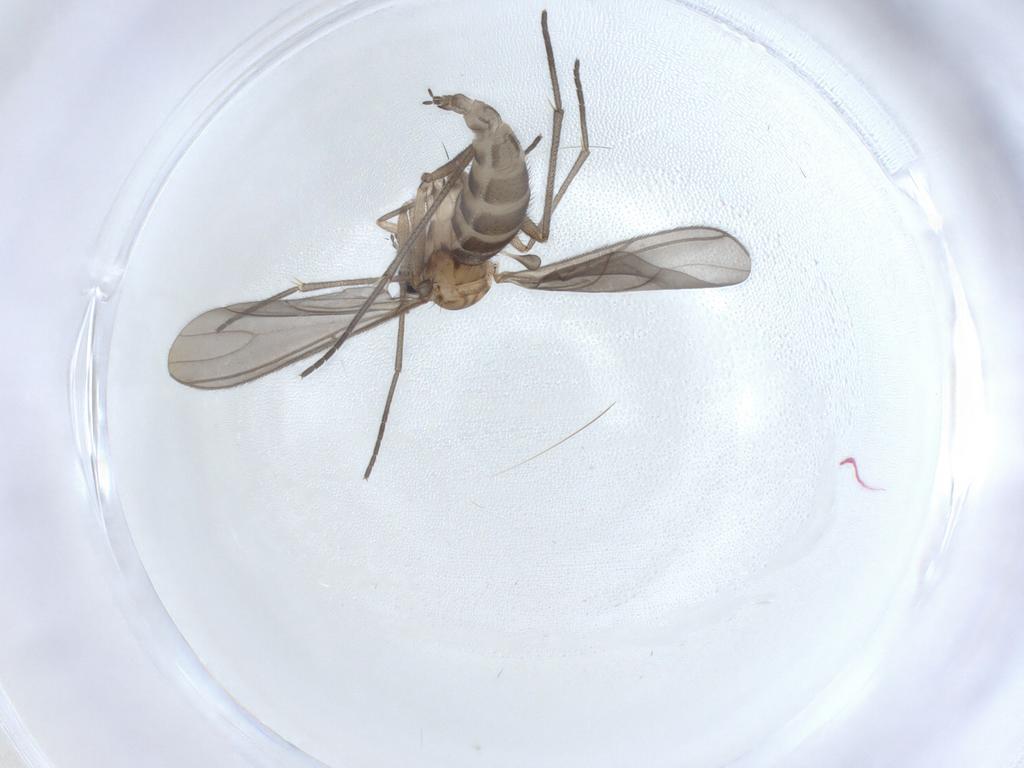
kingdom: Animalia
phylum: Arthropoda
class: Insecta
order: Diptera
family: Sciaridae
